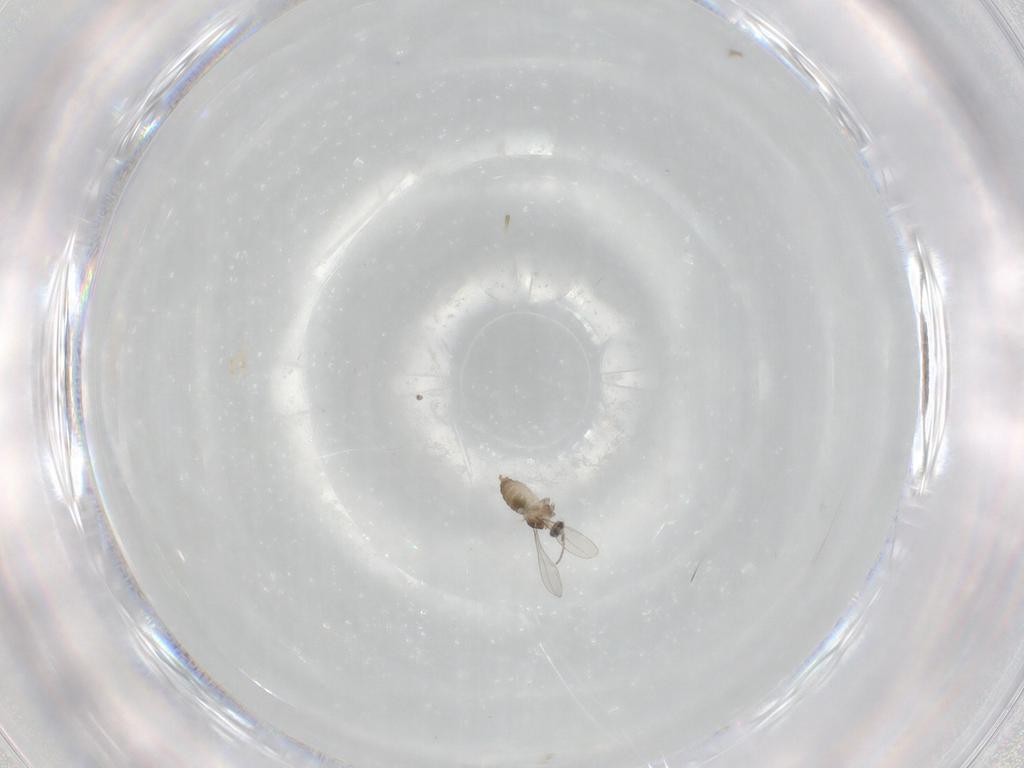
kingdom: Animalia
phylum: Arthropoda
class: Insecta
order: Diptera
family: Cecidomyiidae
